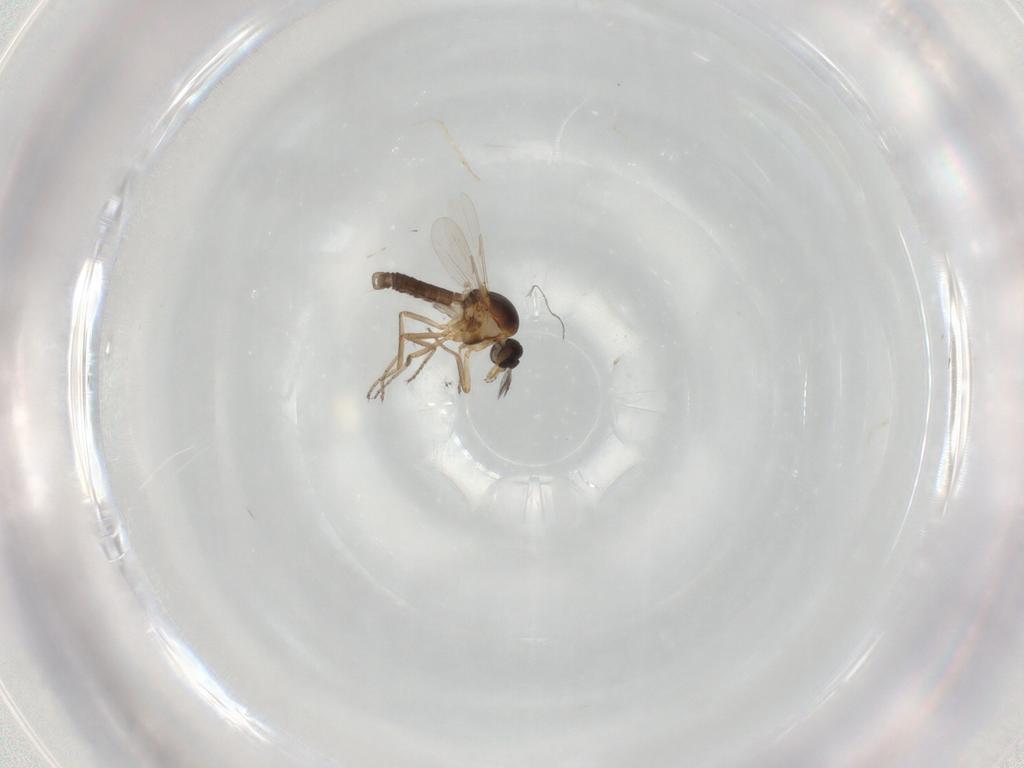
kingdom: Animalia
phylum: Arthropoda
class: Insecta
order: Diptera
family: Ceratopogonidae
